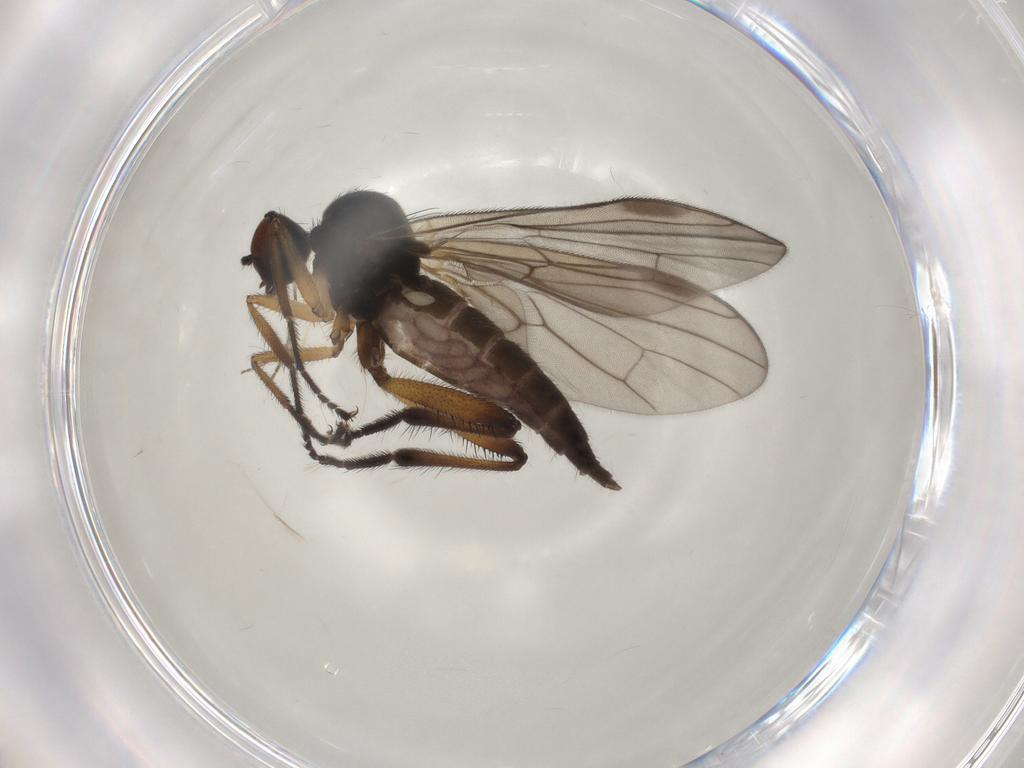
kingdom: Animalia
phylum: Arthropoda
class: Insecta
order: Diptera
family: Hybotidae
